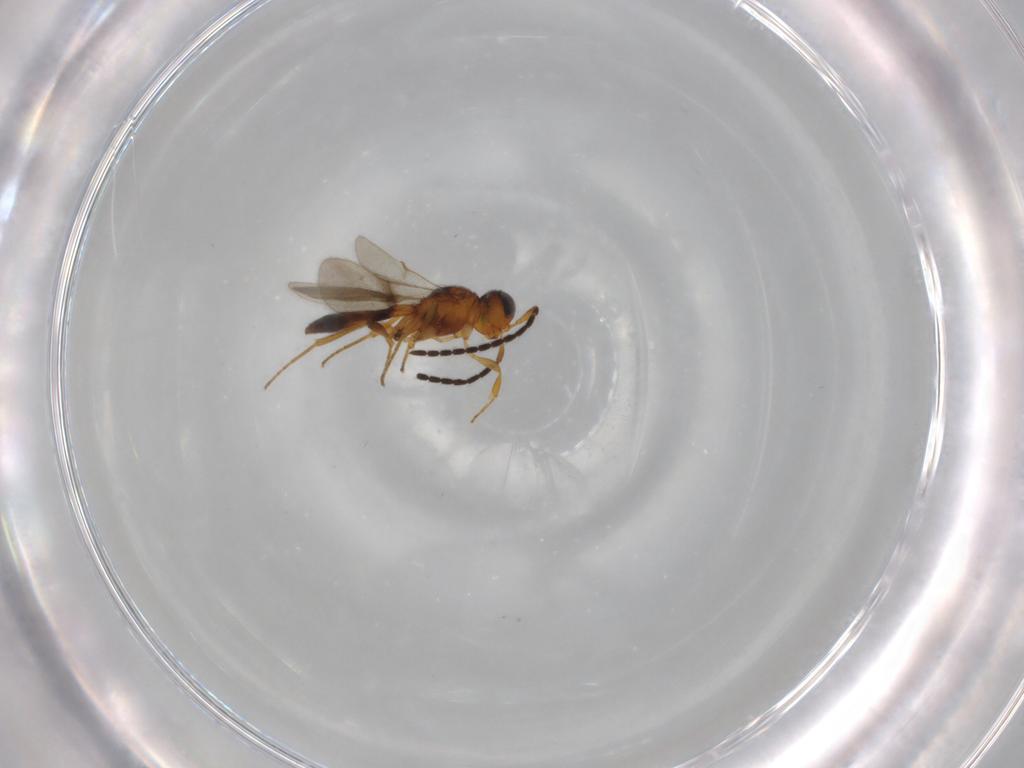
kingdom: Animalia
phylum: Arthropoda
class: Insecta
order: Hymenoptera
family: Scelionidae
